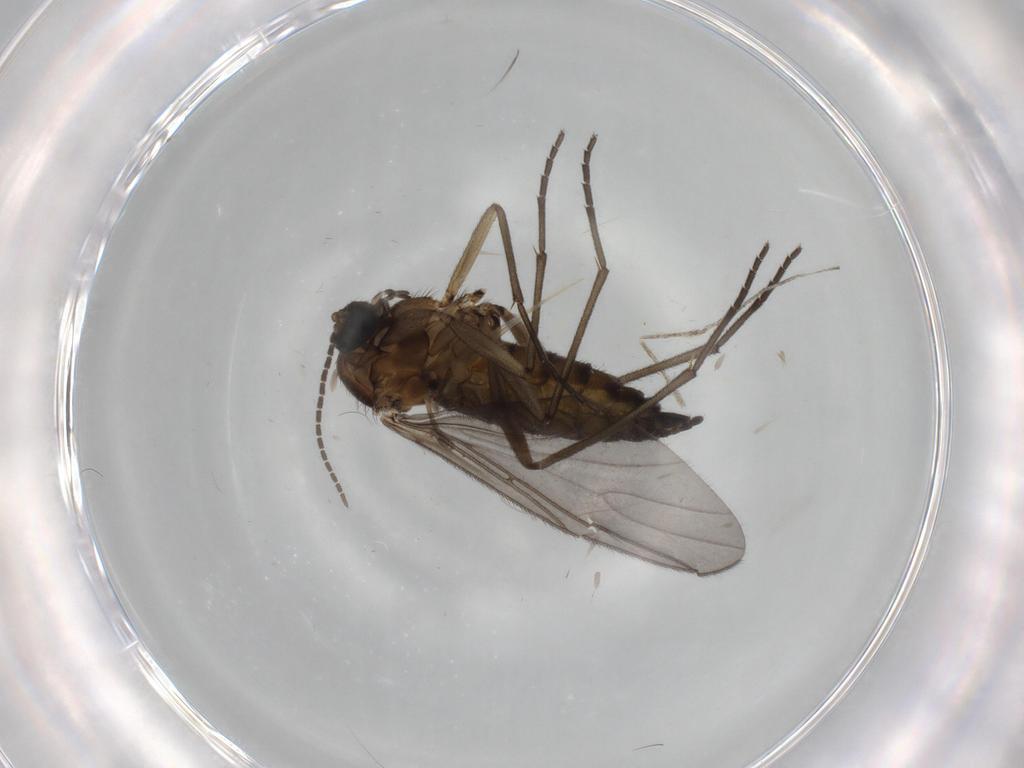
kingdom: Animalia
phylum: Arthropoda
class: Insecta
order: Diptera
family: Sciaridae
